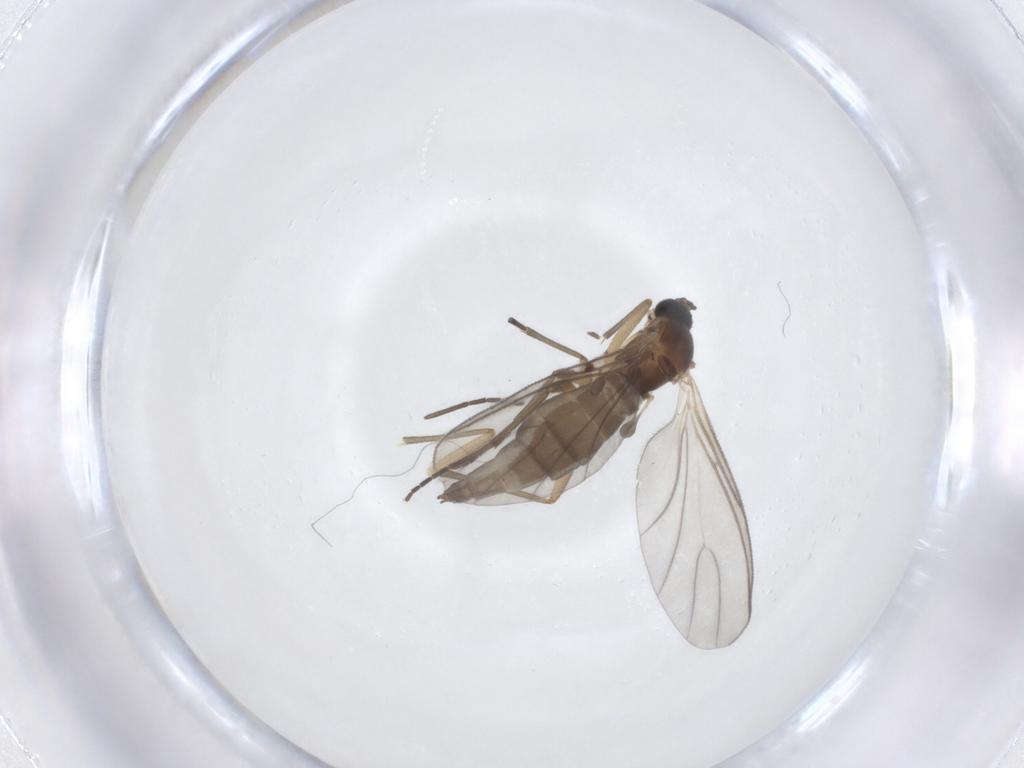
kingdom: Animalia
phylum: Arthropoda
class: Insecta
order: Diptera
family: Sciaridae
